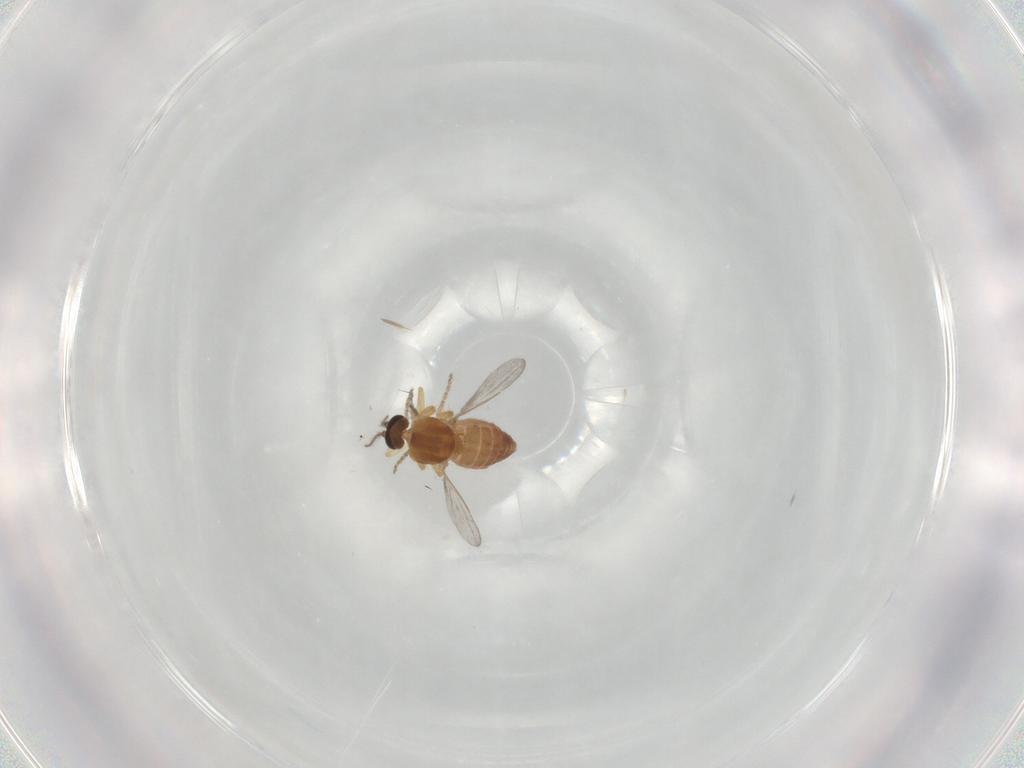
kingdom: Animalia
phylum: Arthropoda
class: Insecta
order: Diptera
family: Ceratopogonidae
